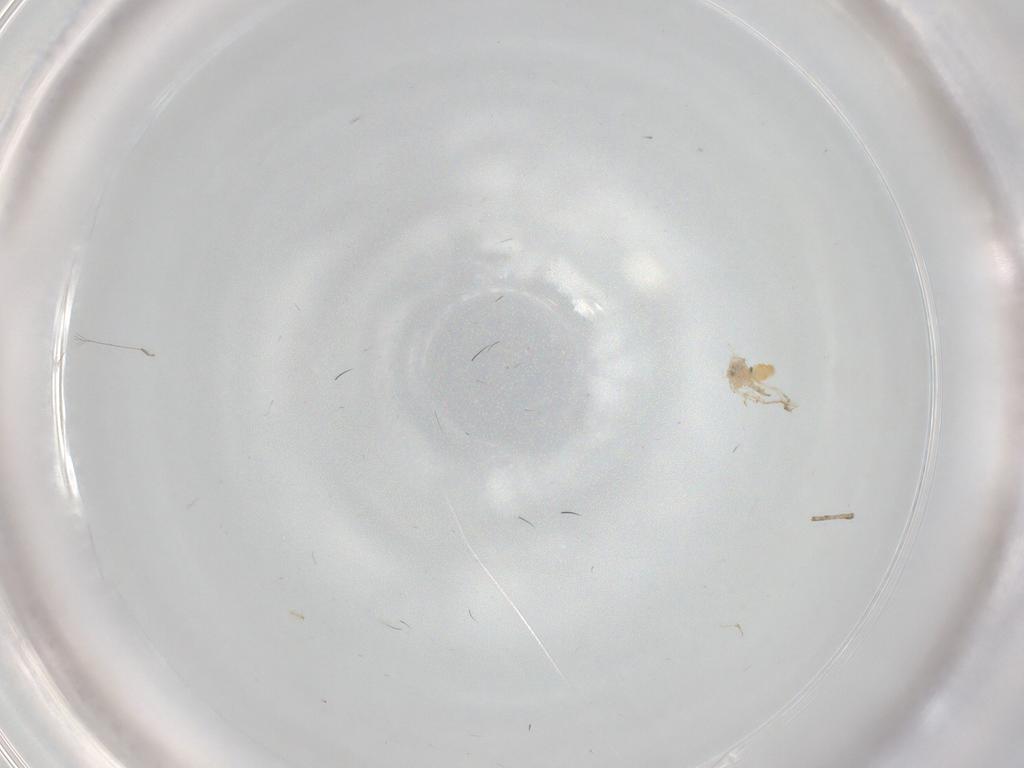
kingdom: Animalia
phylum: Arthropoda
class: Insecta
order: Hemiptera
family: Aleyrodidae
